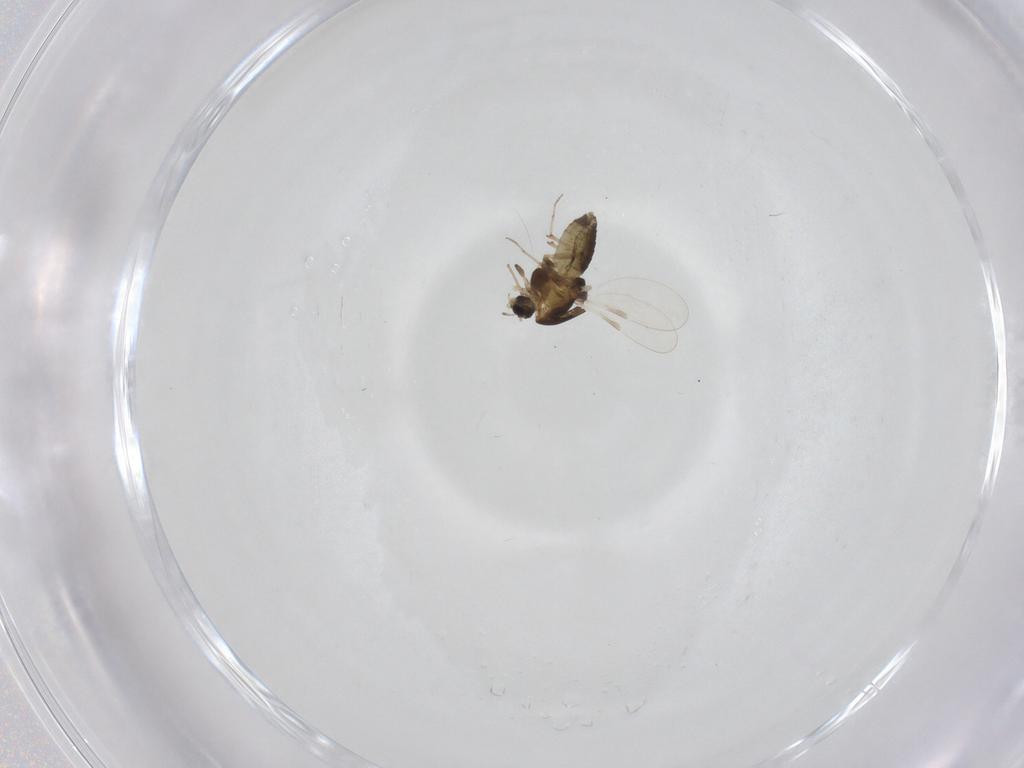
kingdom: Animalia
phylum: Arthropoda
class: Insecta
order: Diptera
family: Chironomidae
